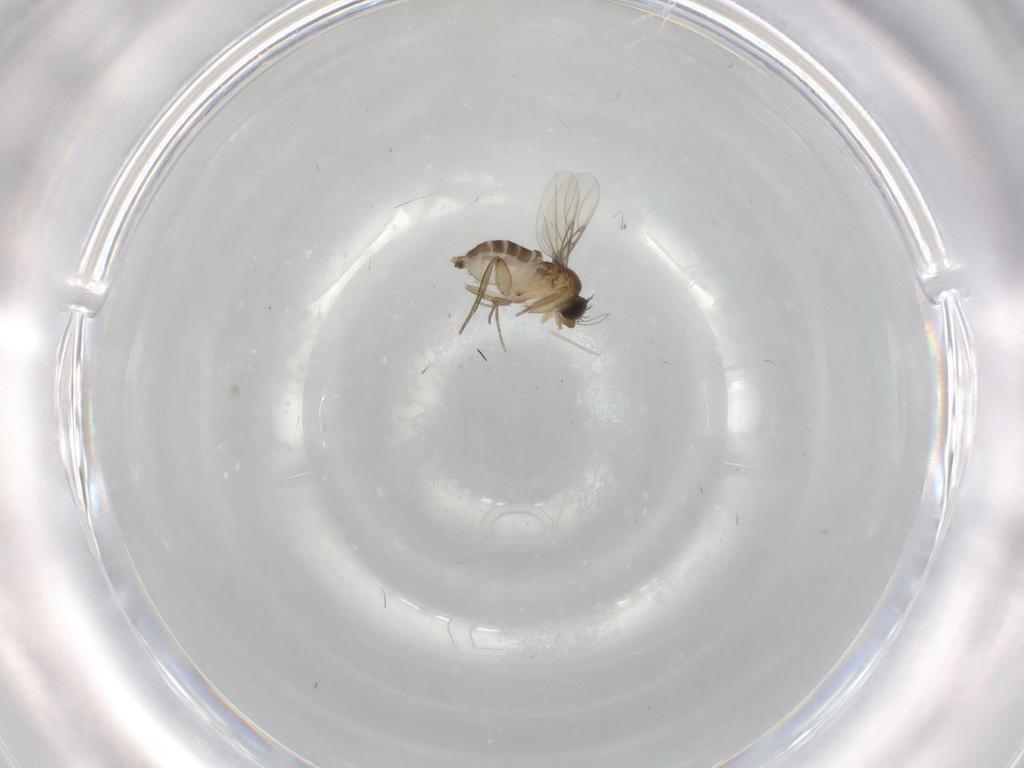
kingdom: Animalia
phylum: Arthropoda
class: Insecta
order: Diptera
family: Phoridae
